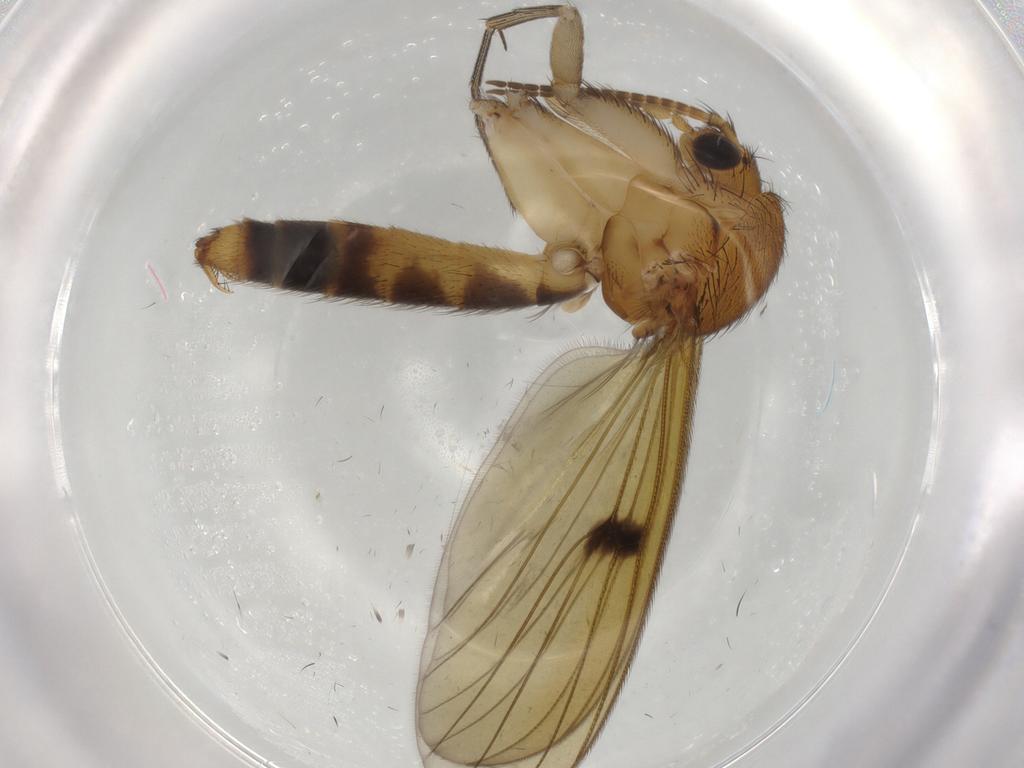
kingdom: Animalia
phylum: Arthropoda
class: Insecta
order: Diptera
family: Mycetophilidae
